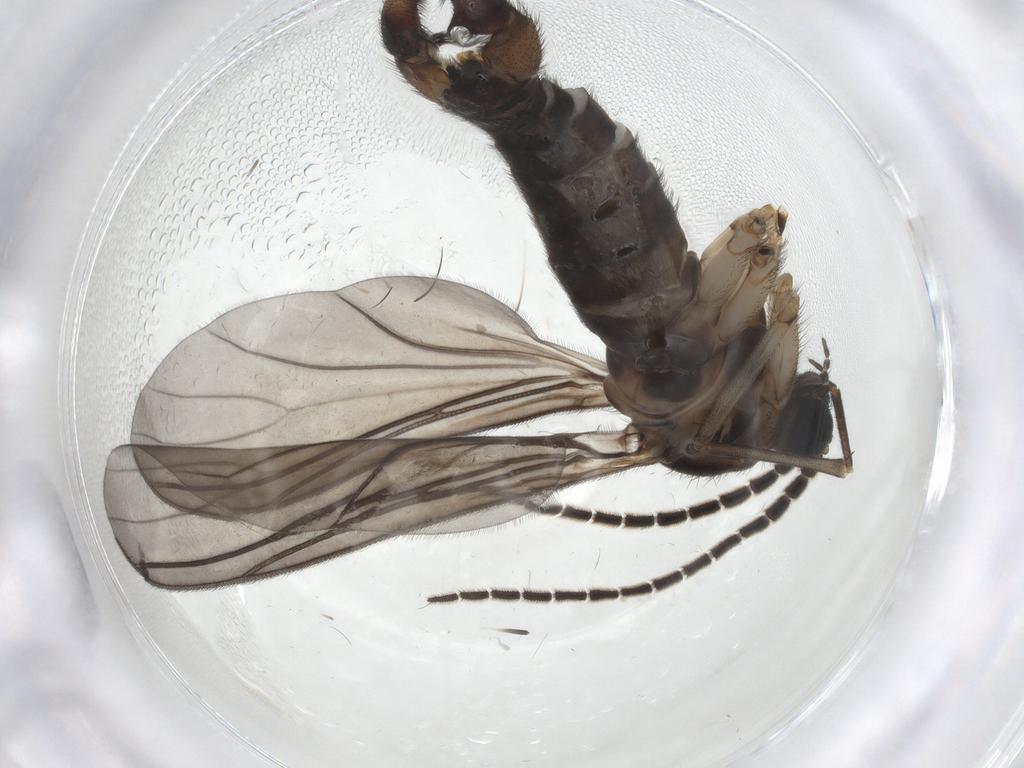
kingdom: Animalia
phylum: Arthropoda
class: Insecta
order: Diptera
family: Sciaridae
